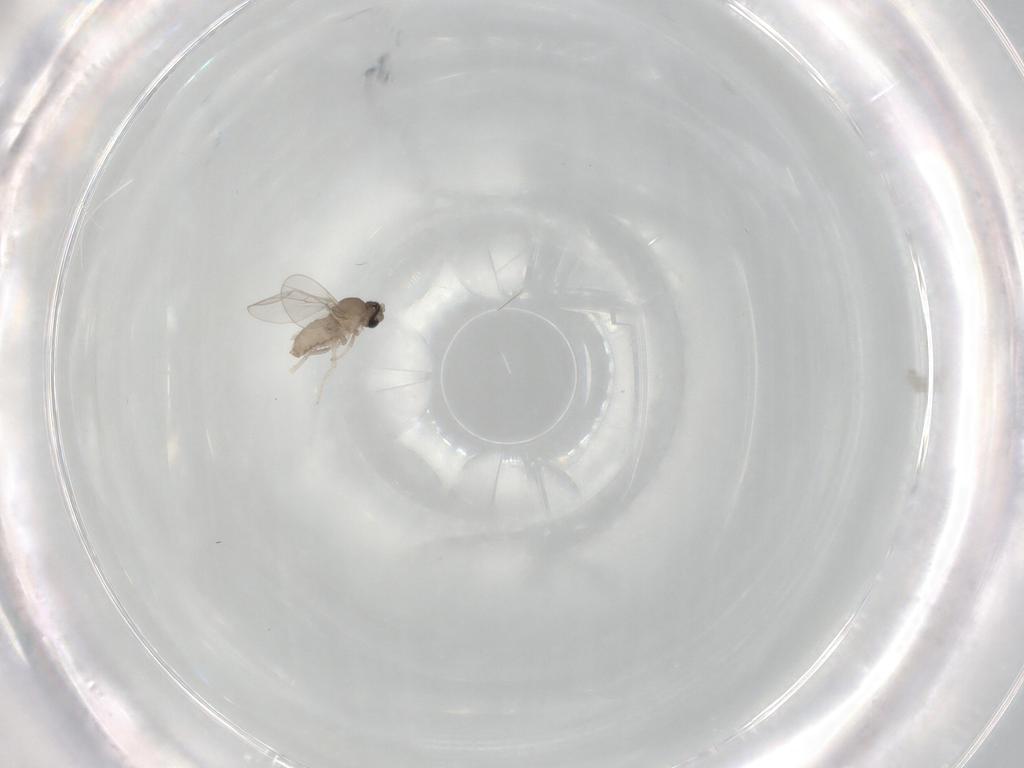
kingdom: Animalia
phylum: Arthropoda
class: Insecta
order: Diptera
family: Cecidomyiidae
